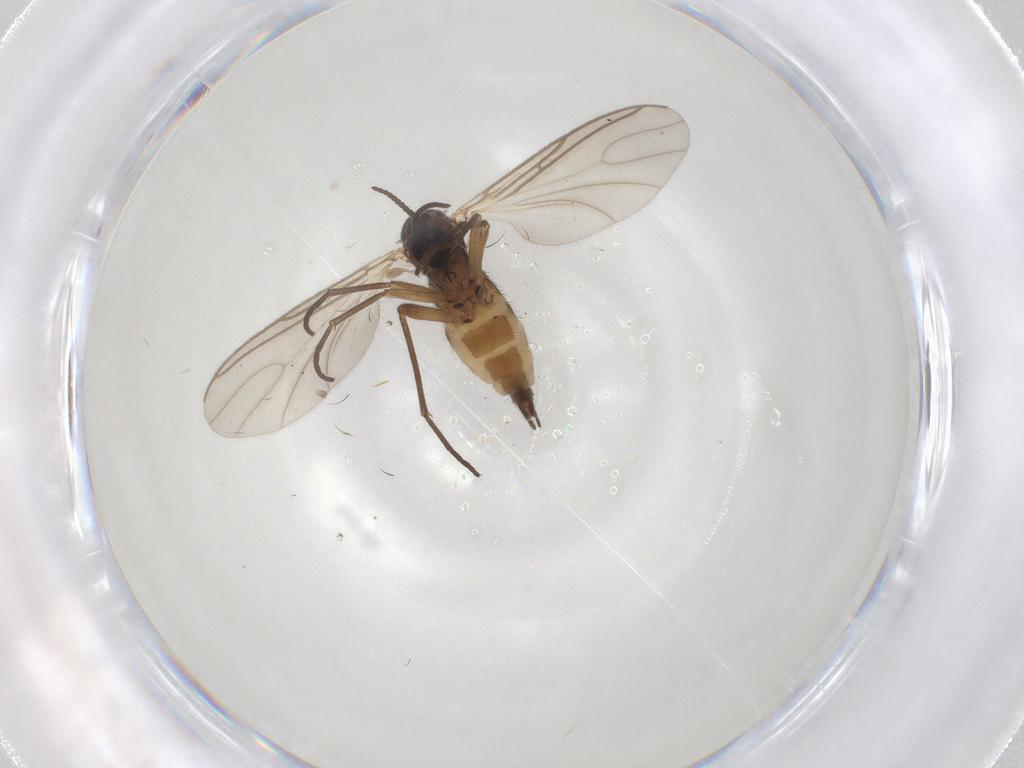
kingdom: Animalia
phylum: Arthropoda
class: Insecta
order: Diptera
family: Sciaridae
